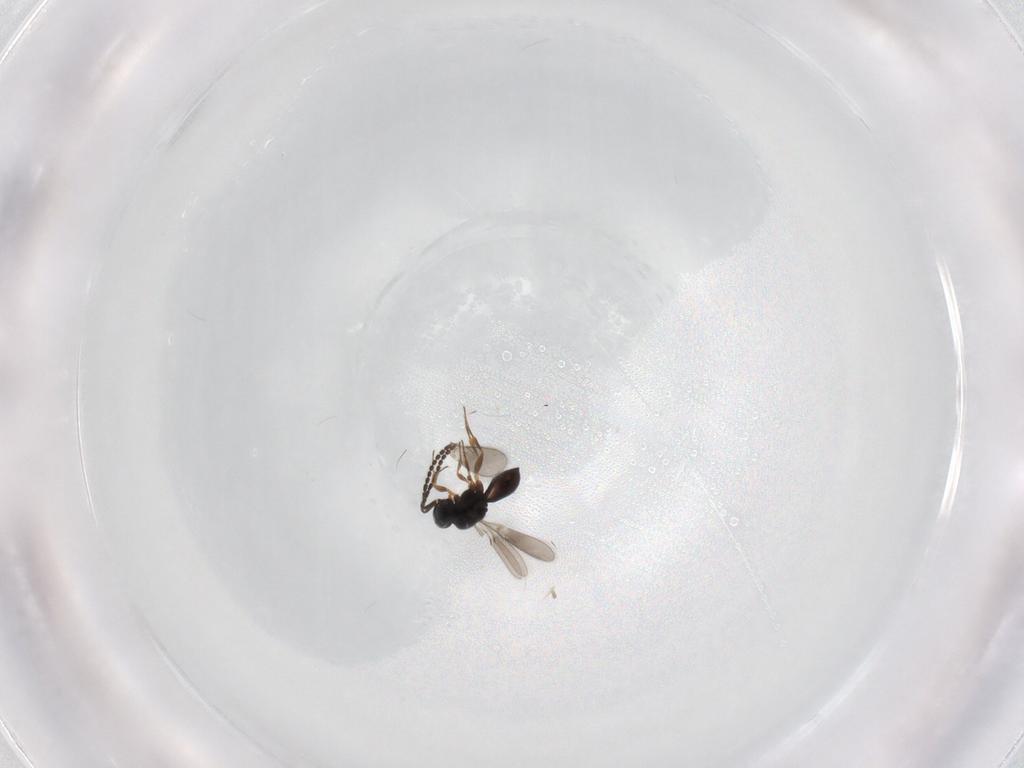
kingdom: Animalia
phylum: Arthropoda
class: Insecta
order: Hymenoptera
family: Scelionidae
